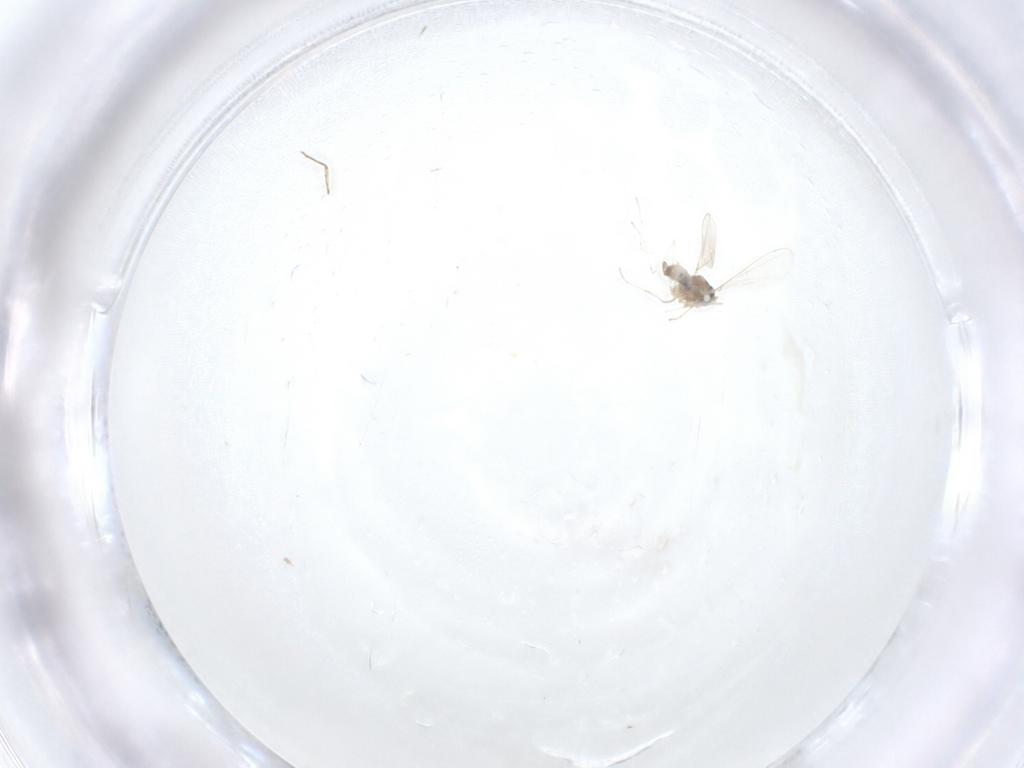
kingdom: Animalia
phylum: Arthropoda
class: Insecta
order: Diptera
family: Cecidomyiidae
